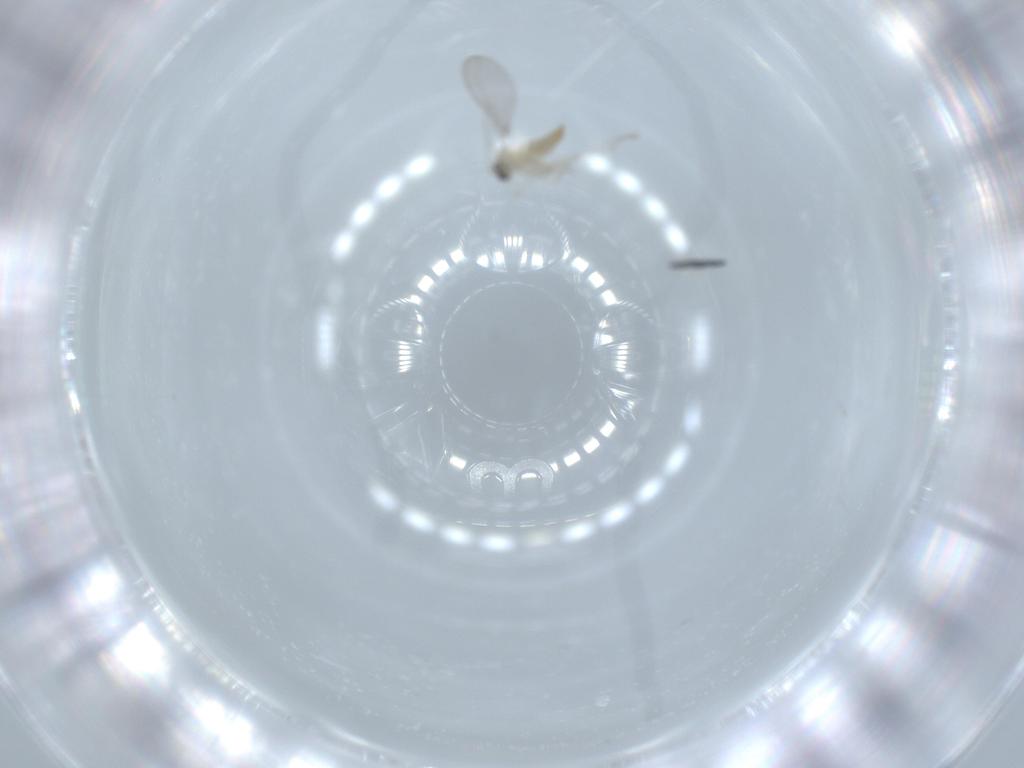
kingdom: Animalia
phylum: Arthropoda
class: Insecta
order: Diptera
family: Cecidomyiidae
